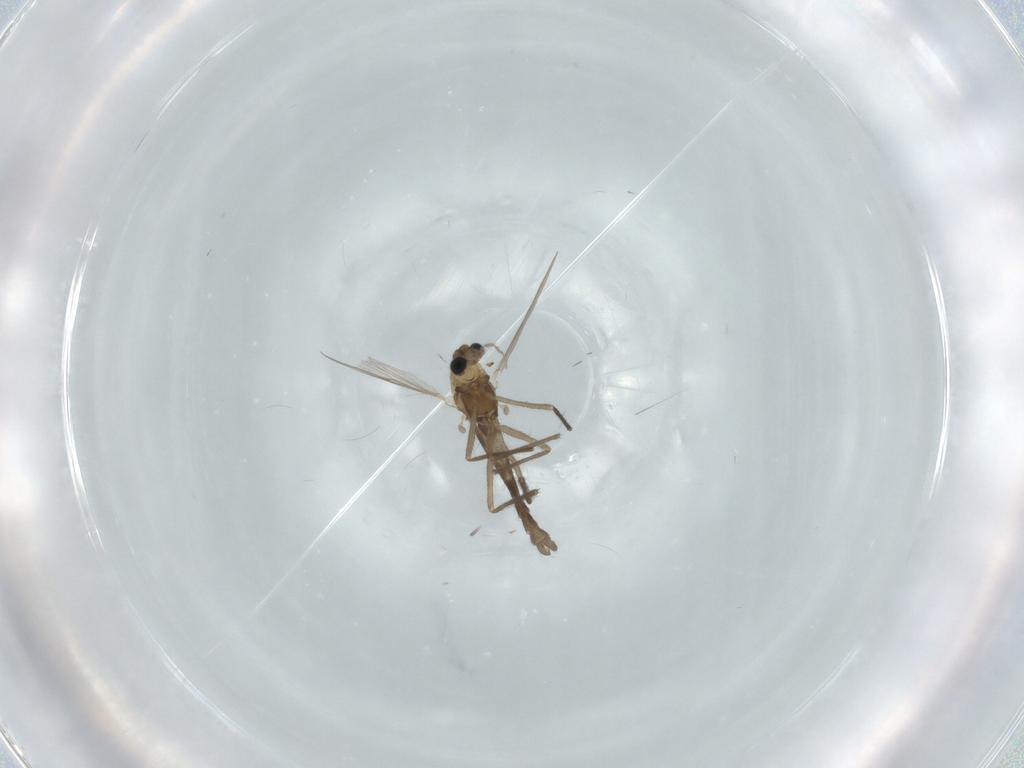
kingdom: Animalia
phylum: Arthropoda
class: Insecta
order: Diptera
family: Chironomidae
